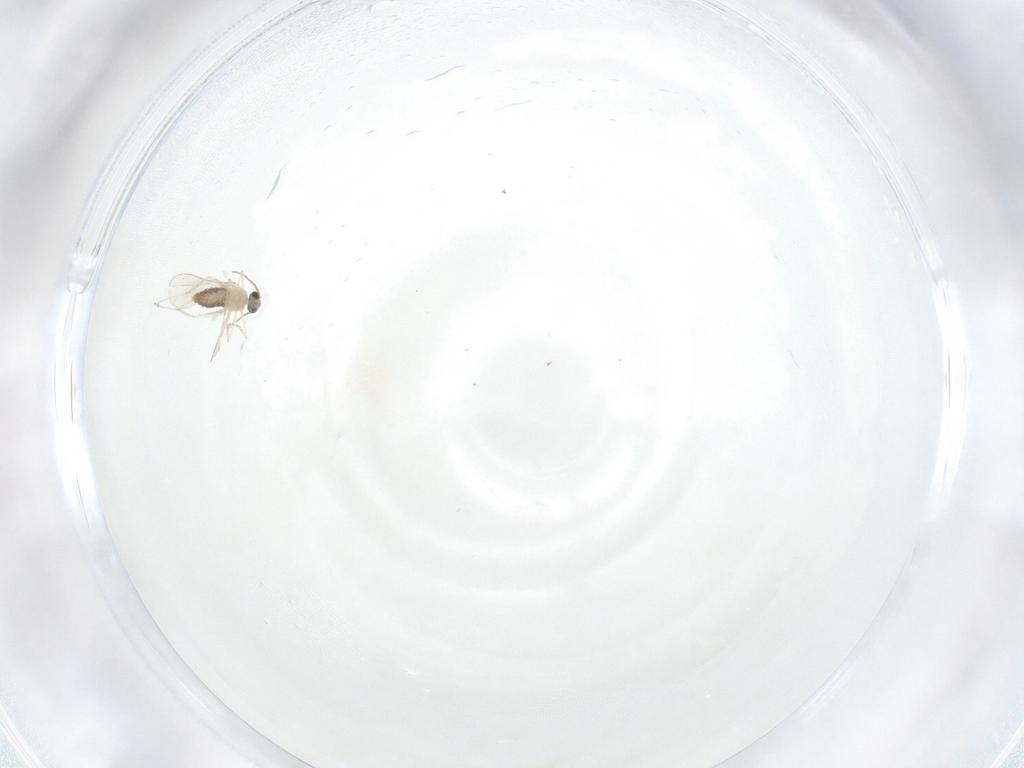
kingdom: Animalia
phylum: Arthropoda
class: Insecta
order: Diptera
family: Cecidomyiidae
